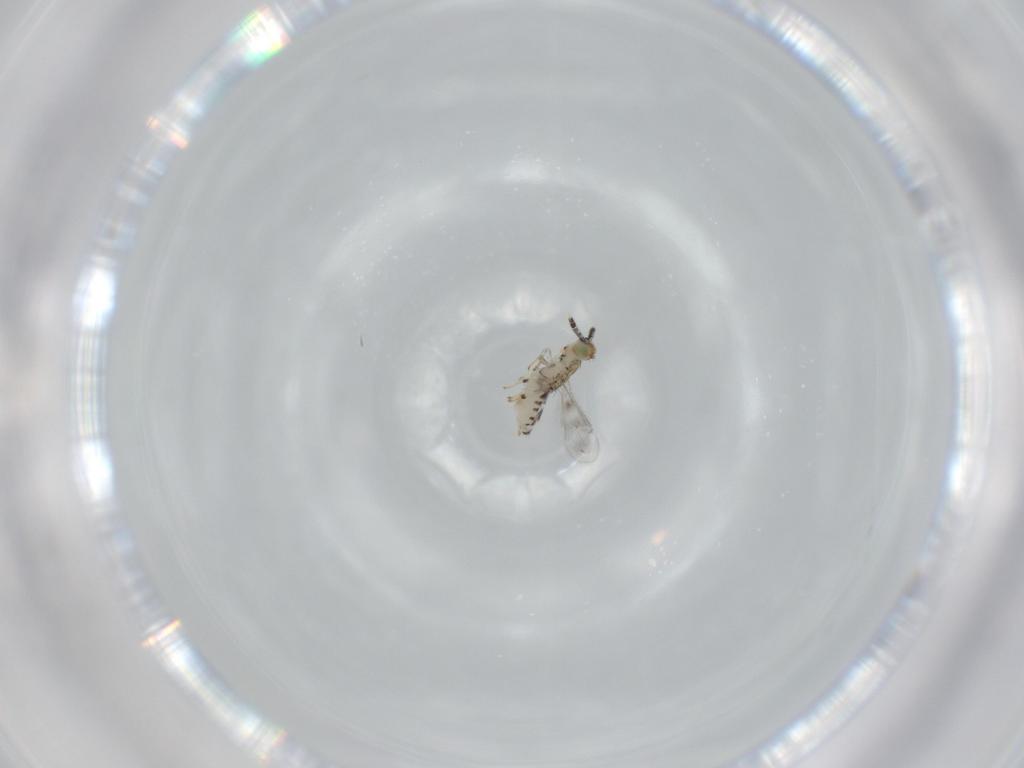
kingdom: Animalia
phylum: Arthropoda
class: Insecta
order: Hymenoptera
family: Aphelinidae
